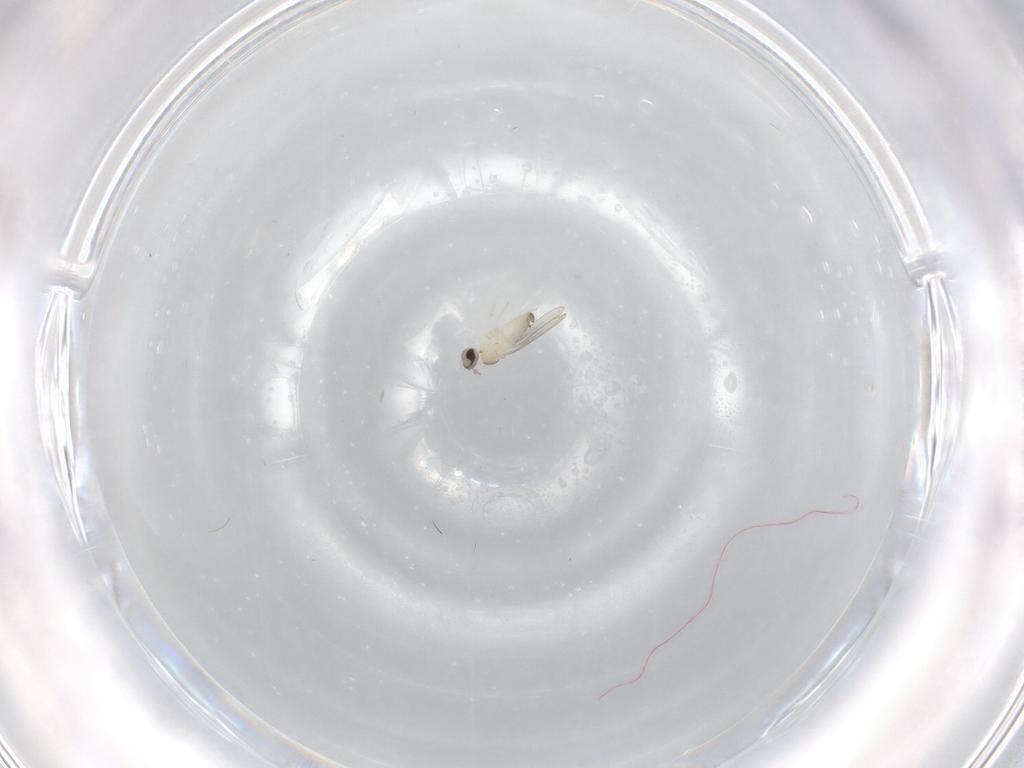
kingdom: Animalia
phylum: Arthropoda
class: Insecta
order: Diptera
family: Cecidomyiidae
